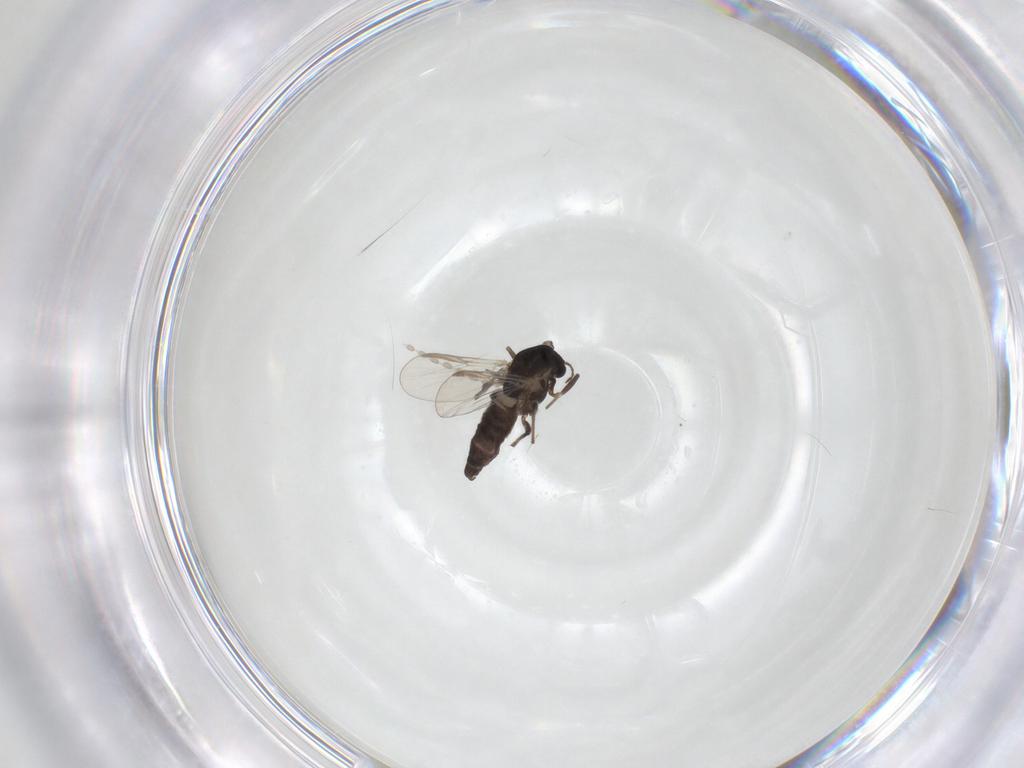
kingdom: Animalia
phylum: Arthropoda
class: Insecta
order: Diptera
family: Chironomidae
